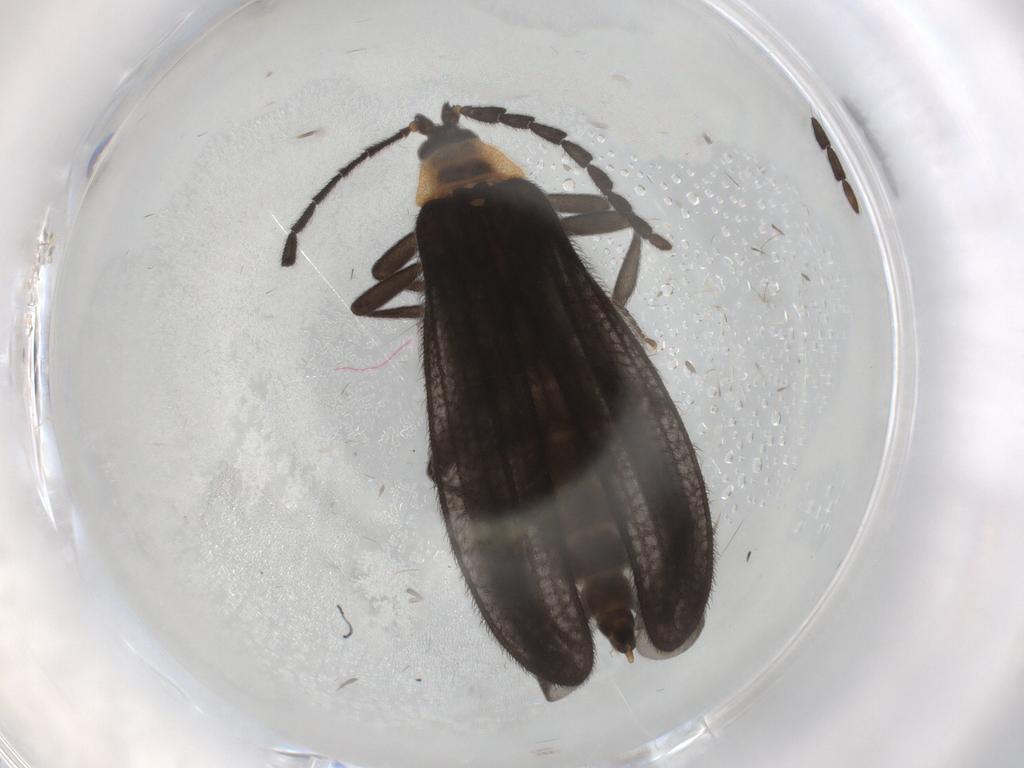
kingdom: Animalia
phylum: Arthropoda
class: Insecta
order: Coleoptera
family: Lycidae
